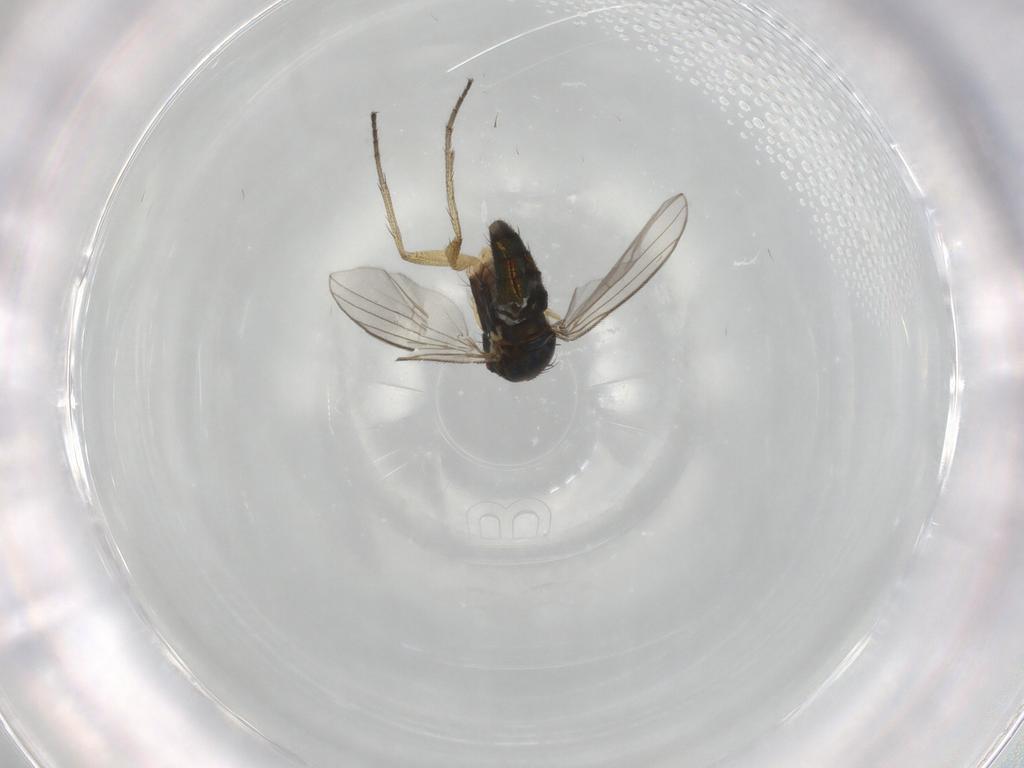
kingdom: Animalia
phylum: Arthropoda
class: Insecta
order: Diptera
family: Dolichopodidae
